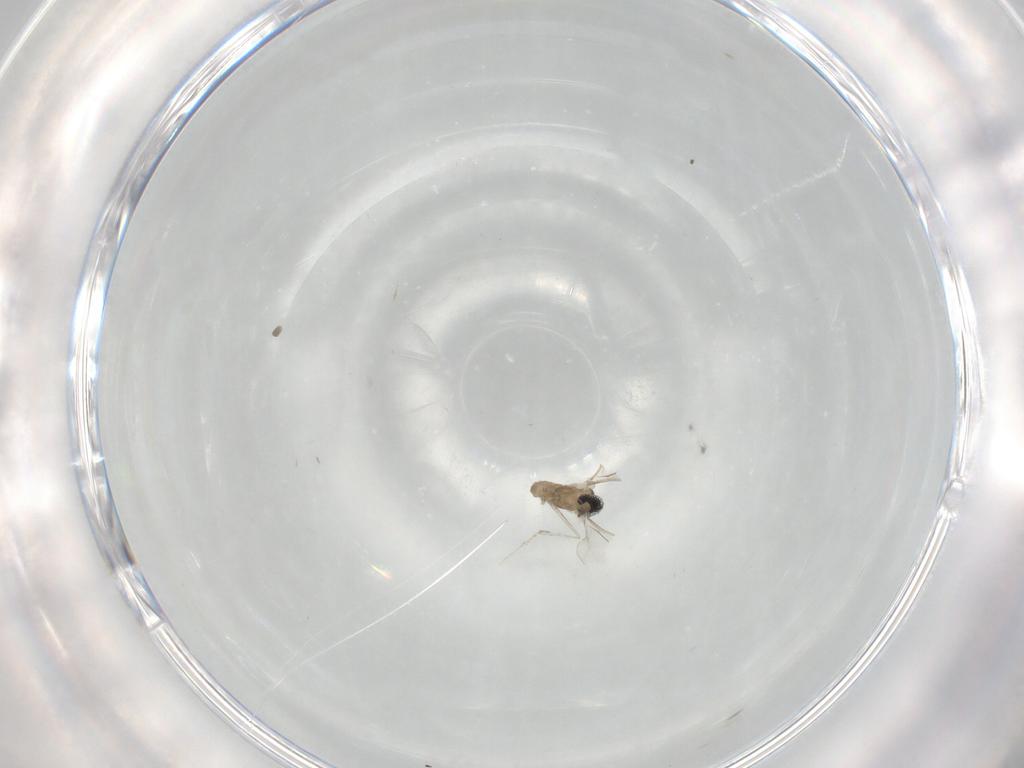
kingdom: Animalia
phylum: Arthropoda
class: Insecta
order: Diptera
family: Cecidomyiidae
